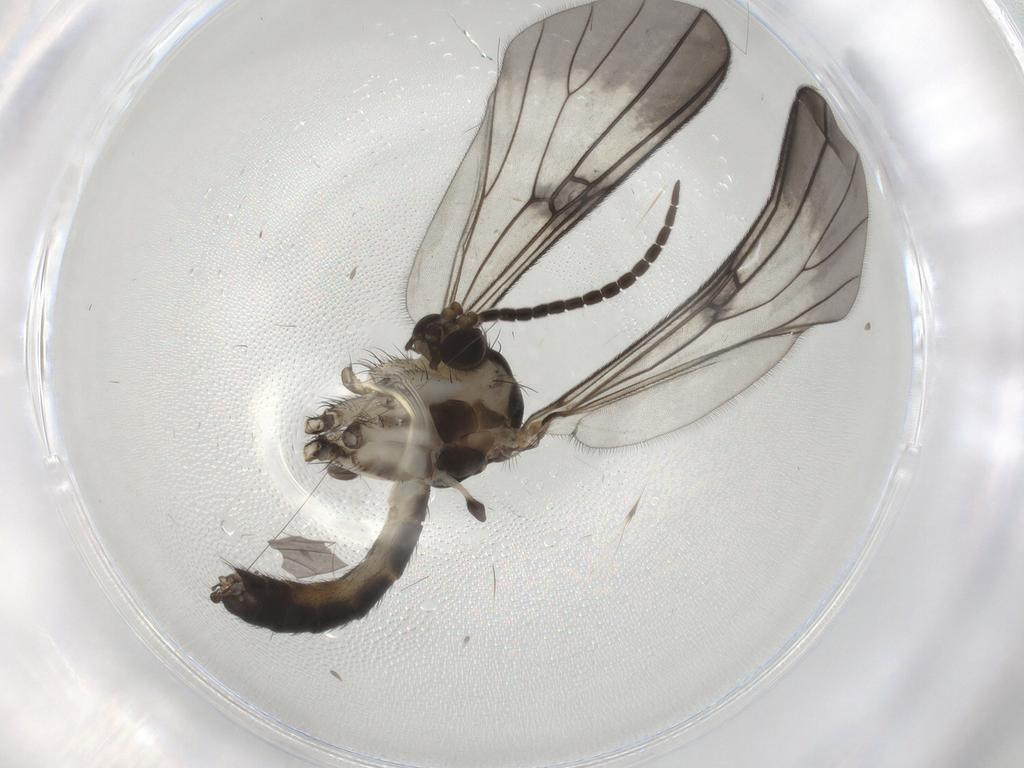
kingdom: Animalia
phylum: Arthropoda
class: Insecta
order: Diptera
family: Mycetophilidae
